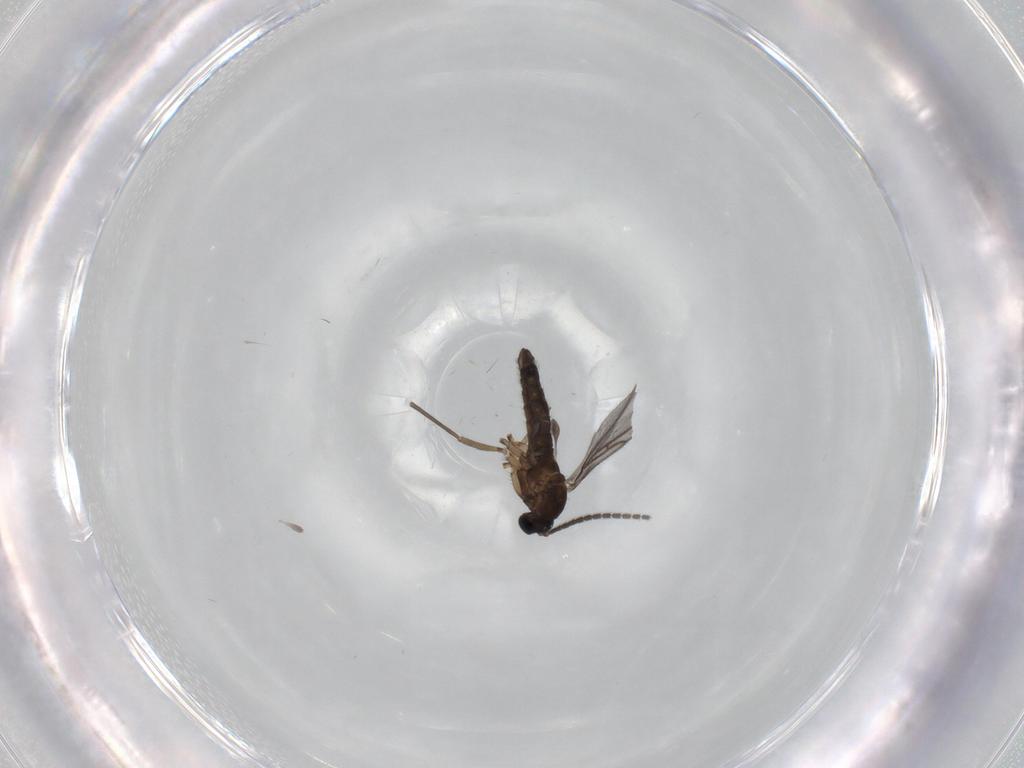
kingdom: Animalia
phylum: Arthropoda
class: Insecta
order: Diptera
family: Sciaridae
